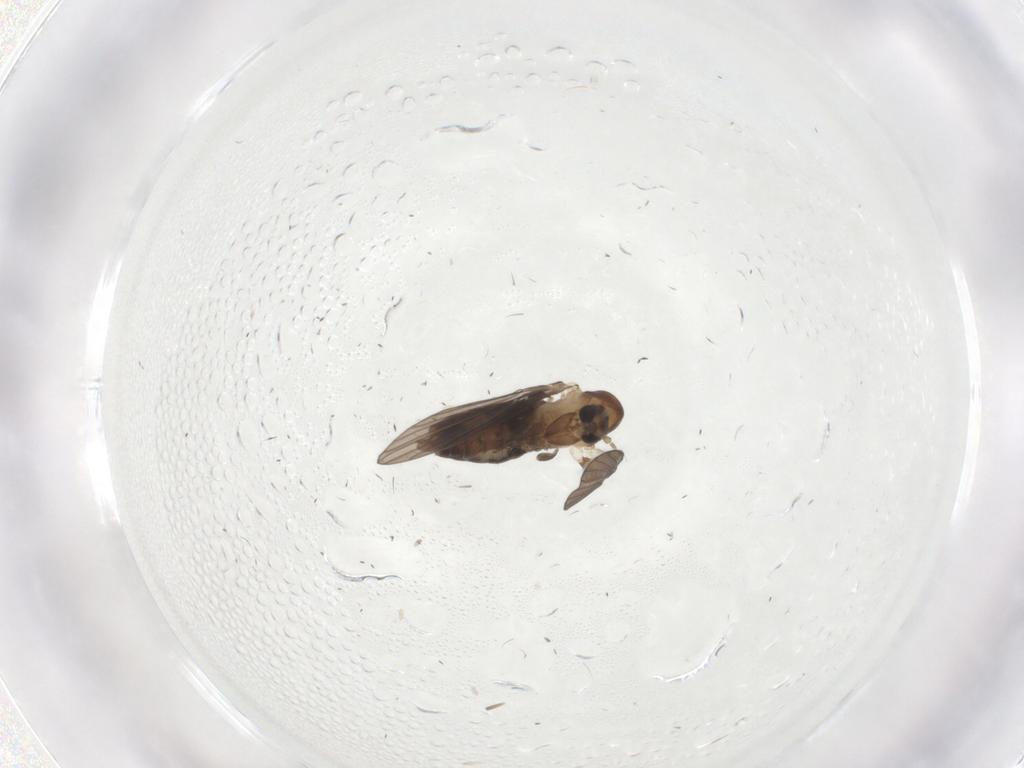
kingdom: Animalia
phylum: Arthropoda
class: Insecta
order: Diptera
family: Psychodidae
